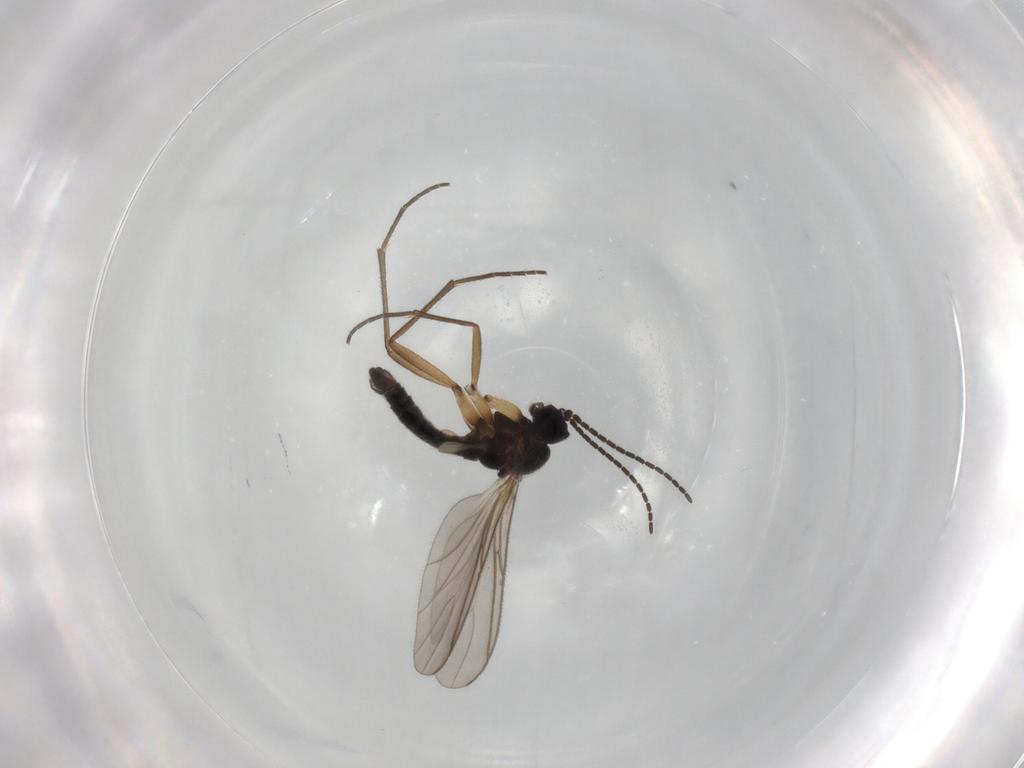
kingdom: Animalia
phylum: Arthropoda
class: Insecta
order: Diptera
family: Sciaridae
